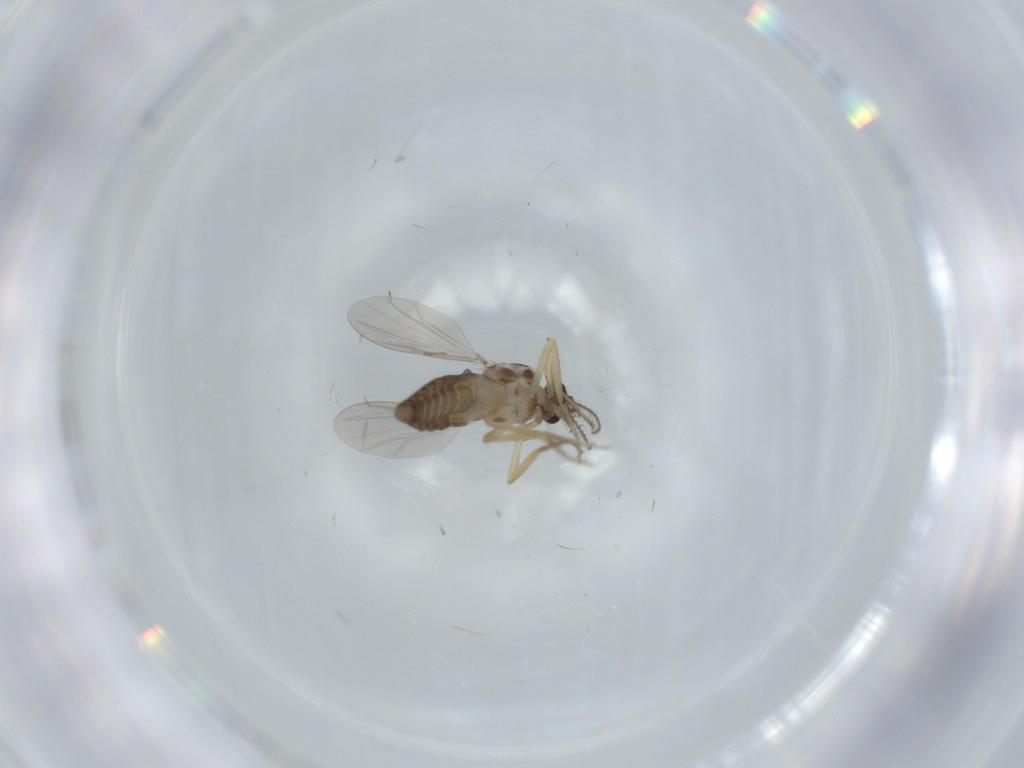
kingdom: Animalia
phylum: Arthropoda
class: Insecta
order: Diptera
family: Ceratopogonidae
